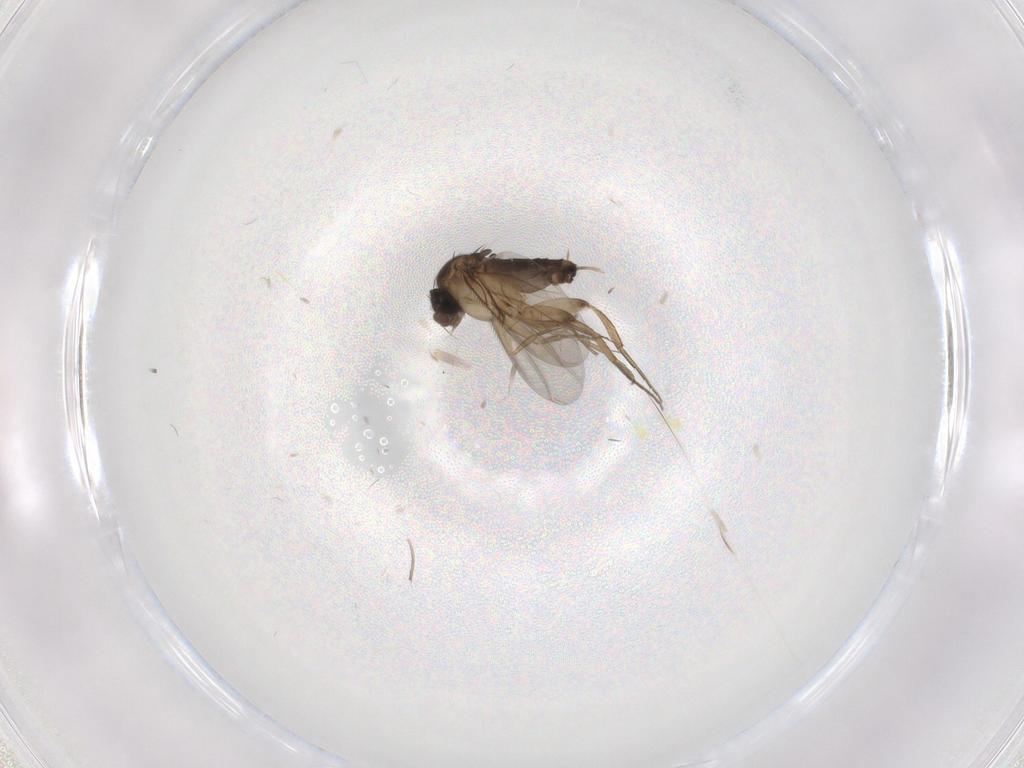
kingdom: Animalia
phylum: Arthropoda
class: Insecta
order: Diptera
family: Phoridae
